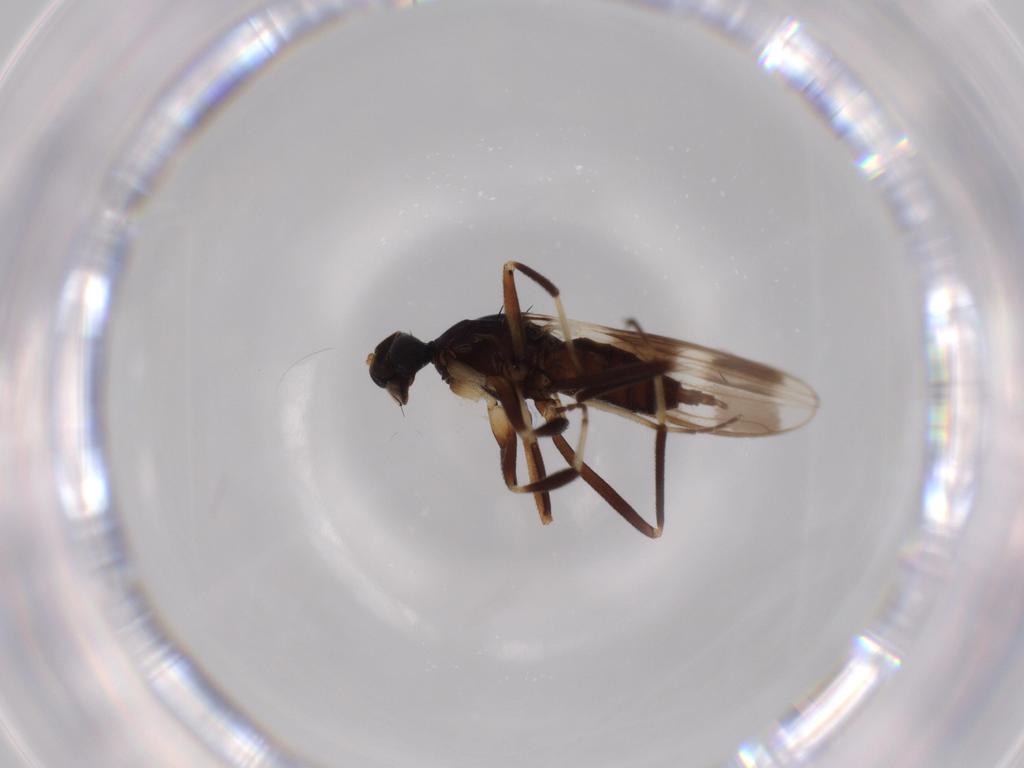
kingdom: Animalia
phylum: Arthropoda
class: Insecta
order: Diptera
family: Hybotidae
